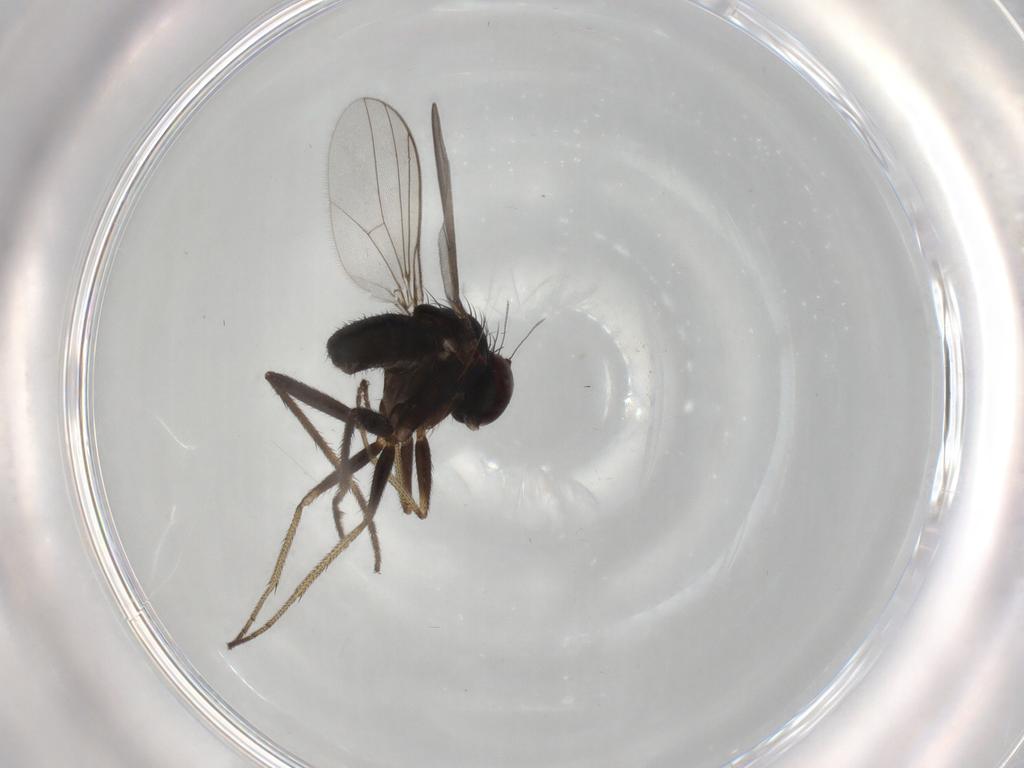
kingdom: Animalia
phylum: Arthropoda
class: Insecta
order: Diptera
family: Dolichopodidae
